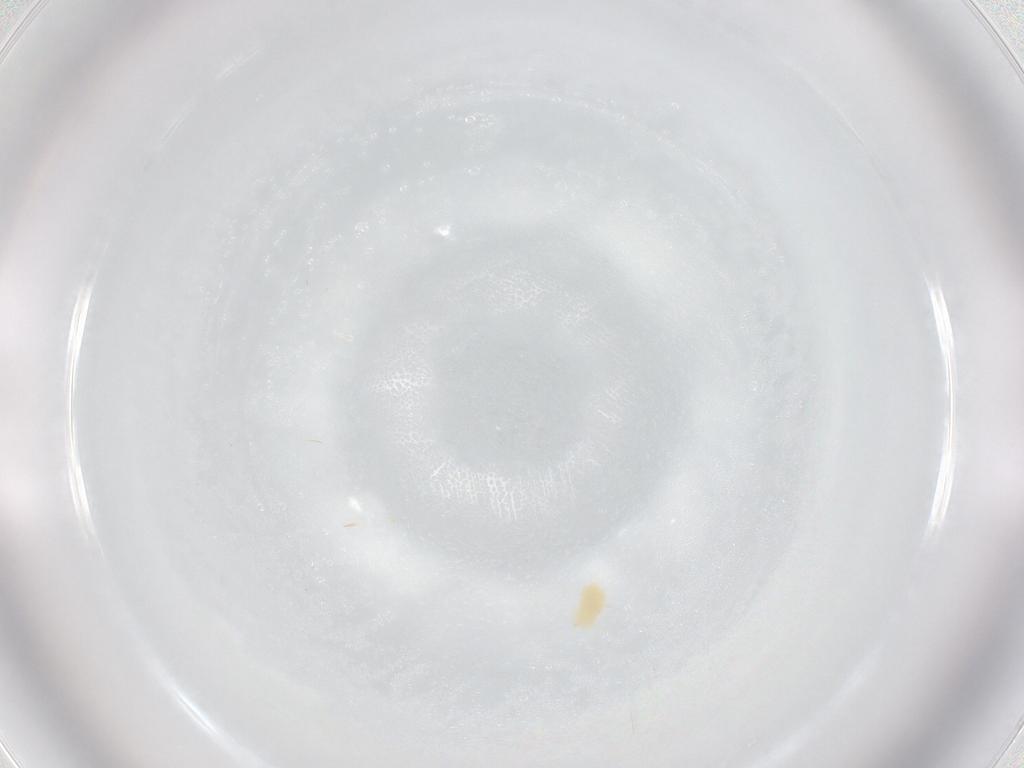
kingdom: Animalia
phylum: Arthropoda
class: Arachnida
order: Trombidiformes
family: Tetranychidae
